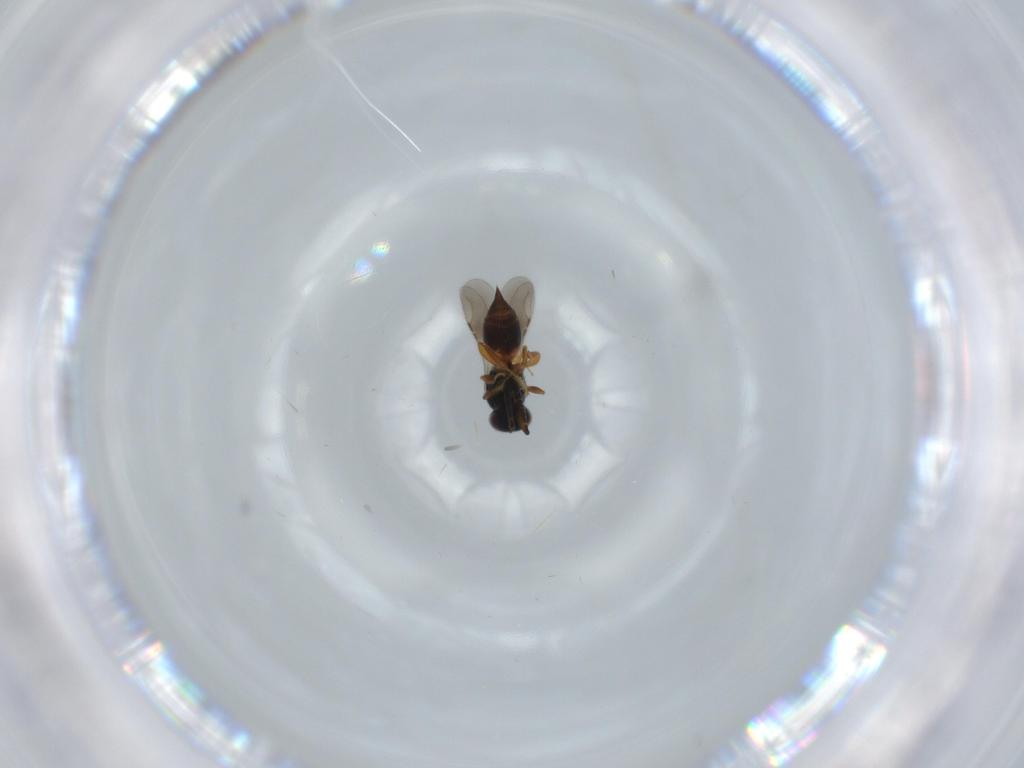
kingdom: Animalia
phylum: Arthropoda
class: Insecta
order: Hymenoptera
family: Ceraphronidae
